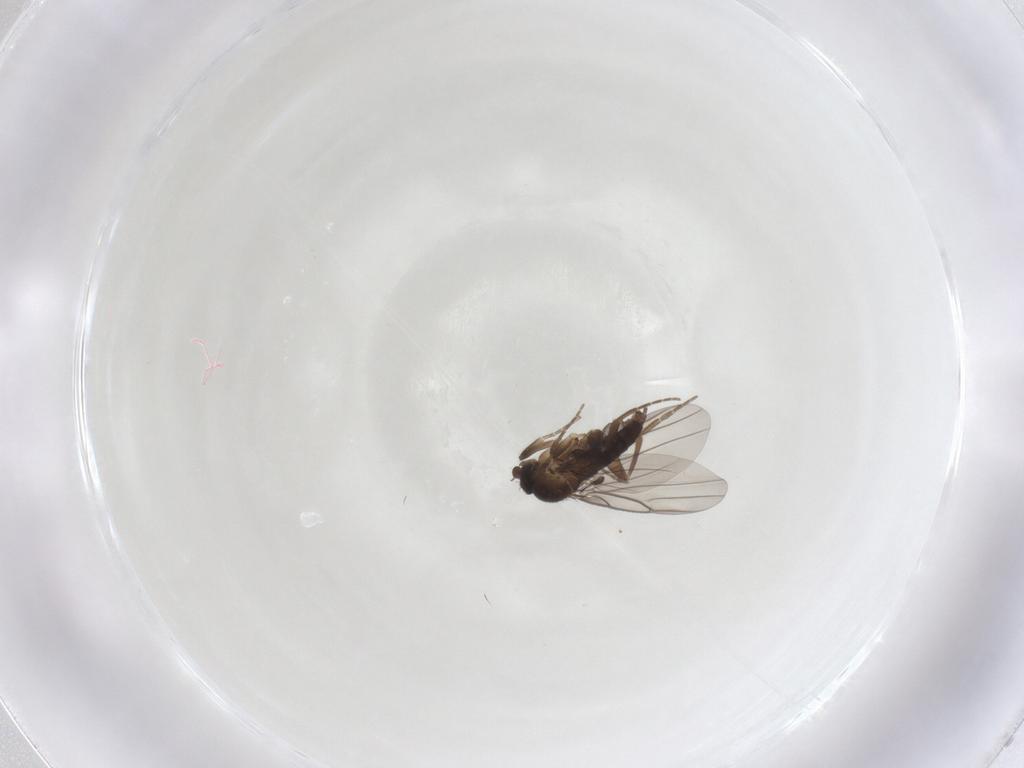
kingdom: Animalia
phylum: Arthropoda
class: Insecta
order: Diptera
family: Phoridae
